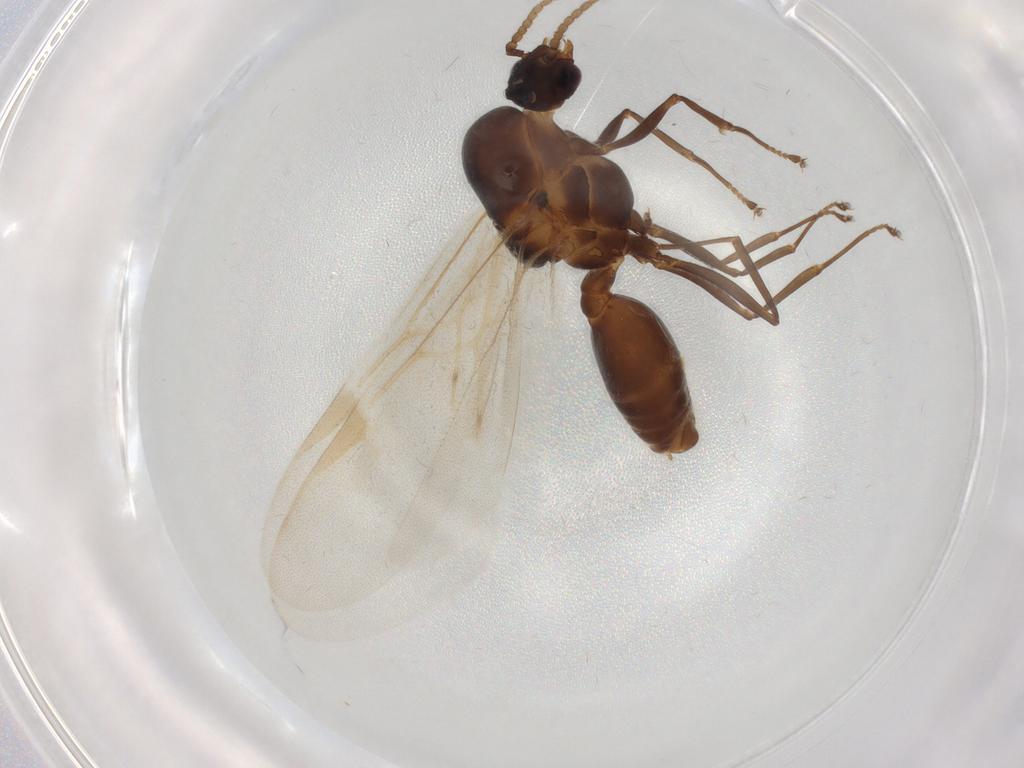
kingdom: Animalia
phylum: Arthropoda
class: Insecta
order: Hymenoptera
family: Formicidae
